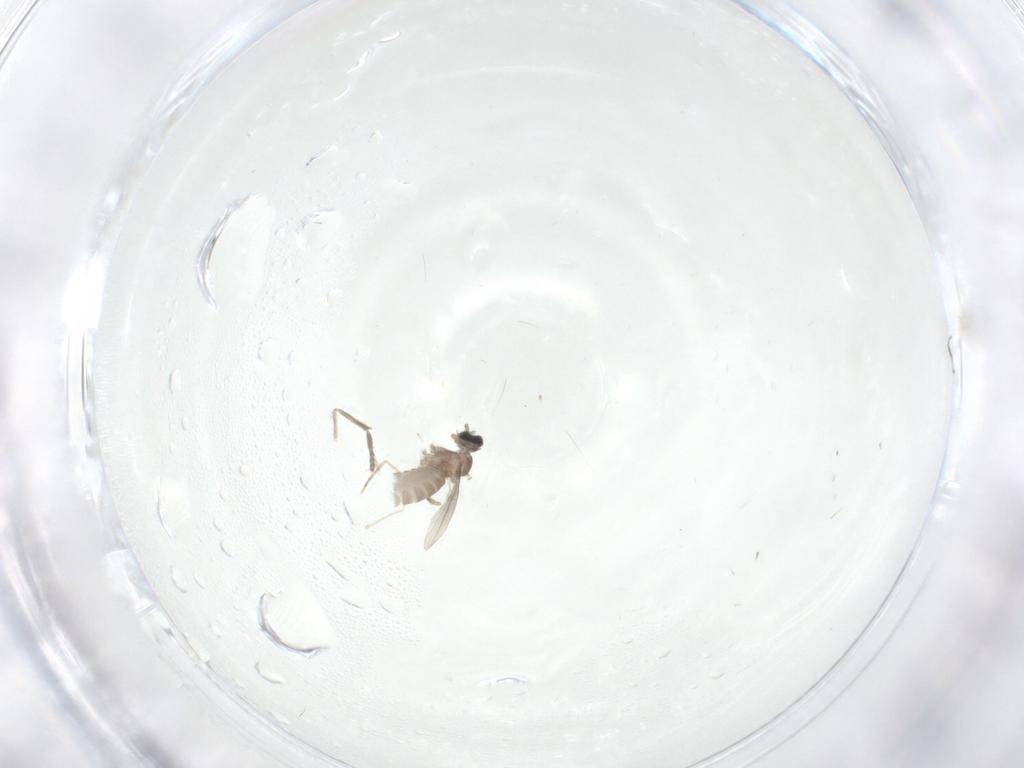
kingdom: Animalia
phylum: Arthropoda
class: Insecta
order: Diptera
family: Cecidomyiidae
